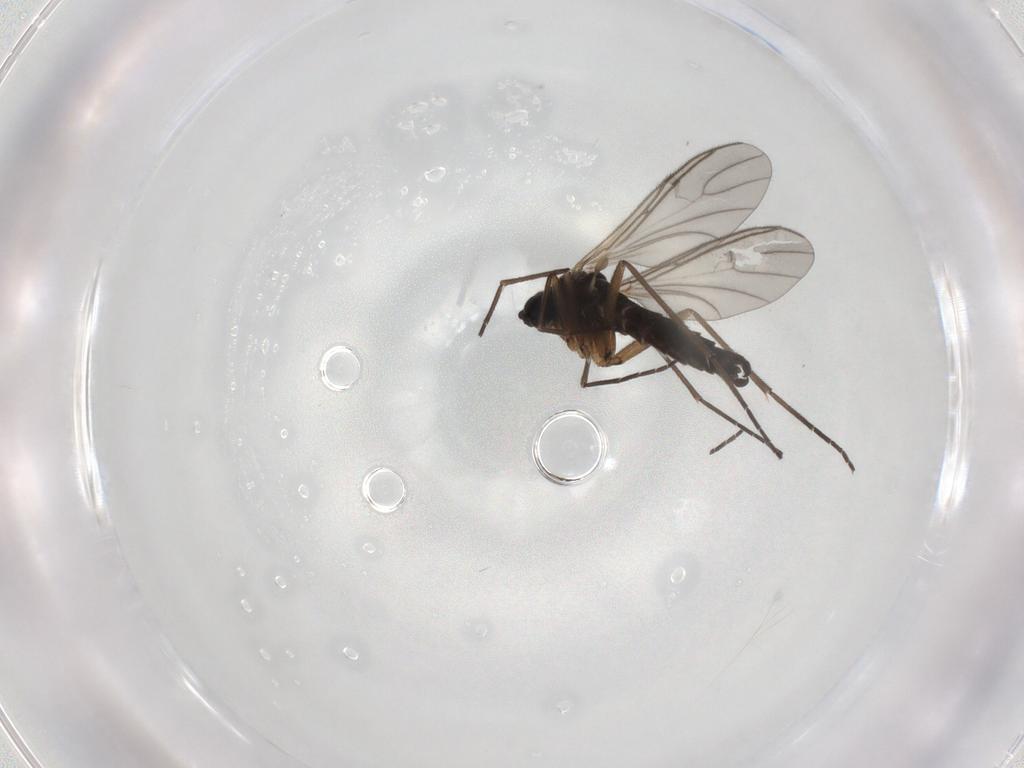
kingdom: Animalia
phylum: Arthropoda
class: Insecta
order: Diptera
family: Sciaridae
